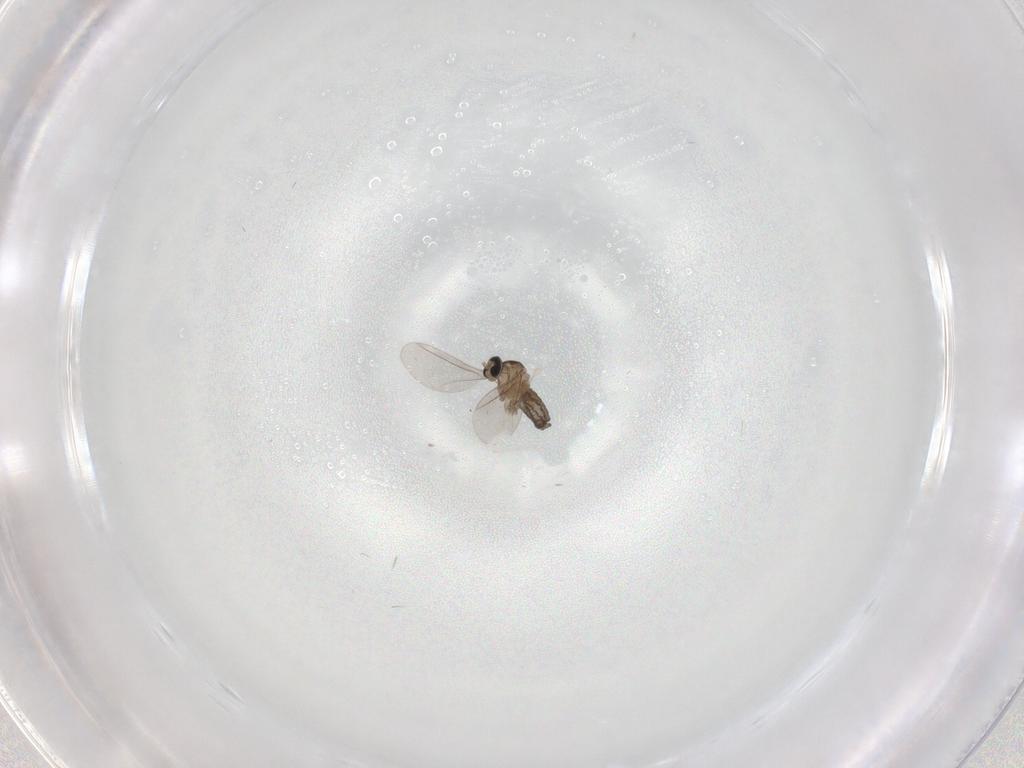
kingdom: Animalia
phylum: Arthropoda
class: Insecta
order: Diptera
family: Cecidomyiidae
